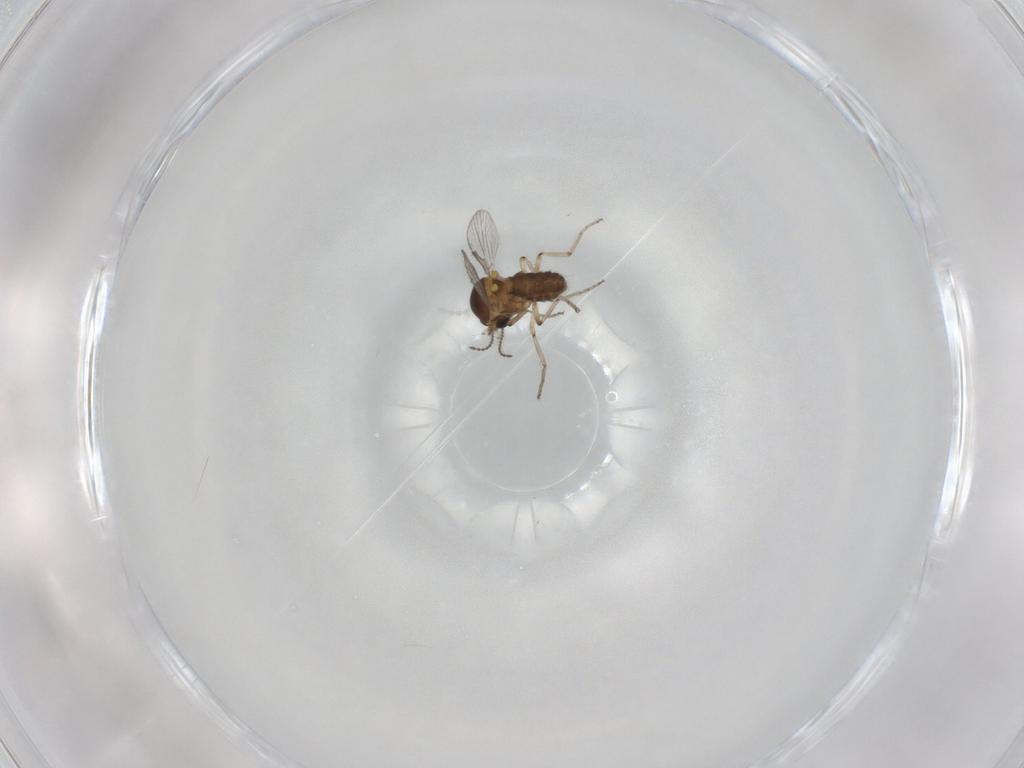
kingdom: Animalia
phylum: Arthropoda
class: Insecta
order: Diptera
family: Ceratopogonidae
